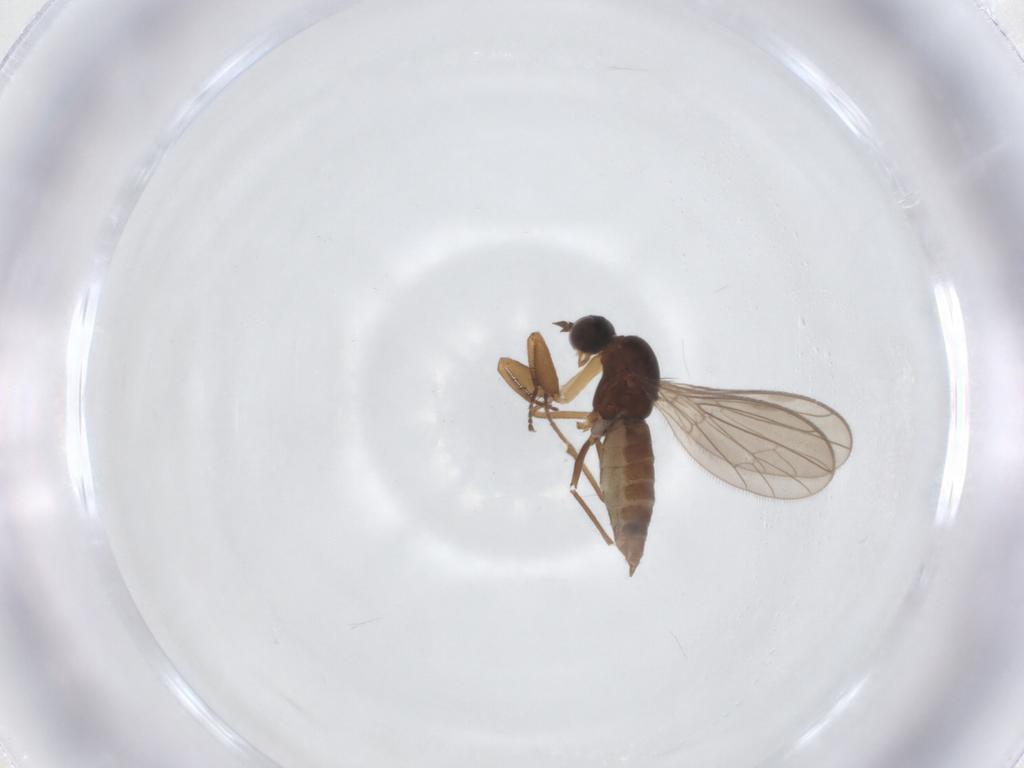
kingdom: Animalia
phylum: Arthropoda
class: Insecta
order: Diptera
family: Empididae
